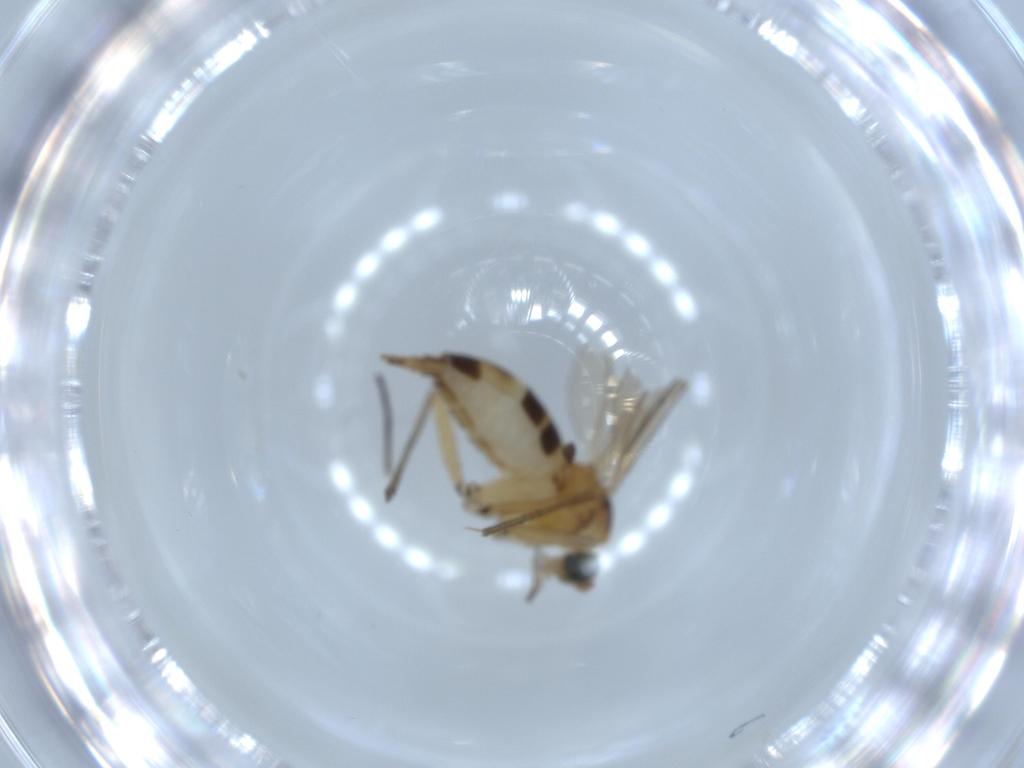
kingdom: Animalia
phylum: Arthropoda
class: Insecta
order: Diptera
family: Sciaridae
